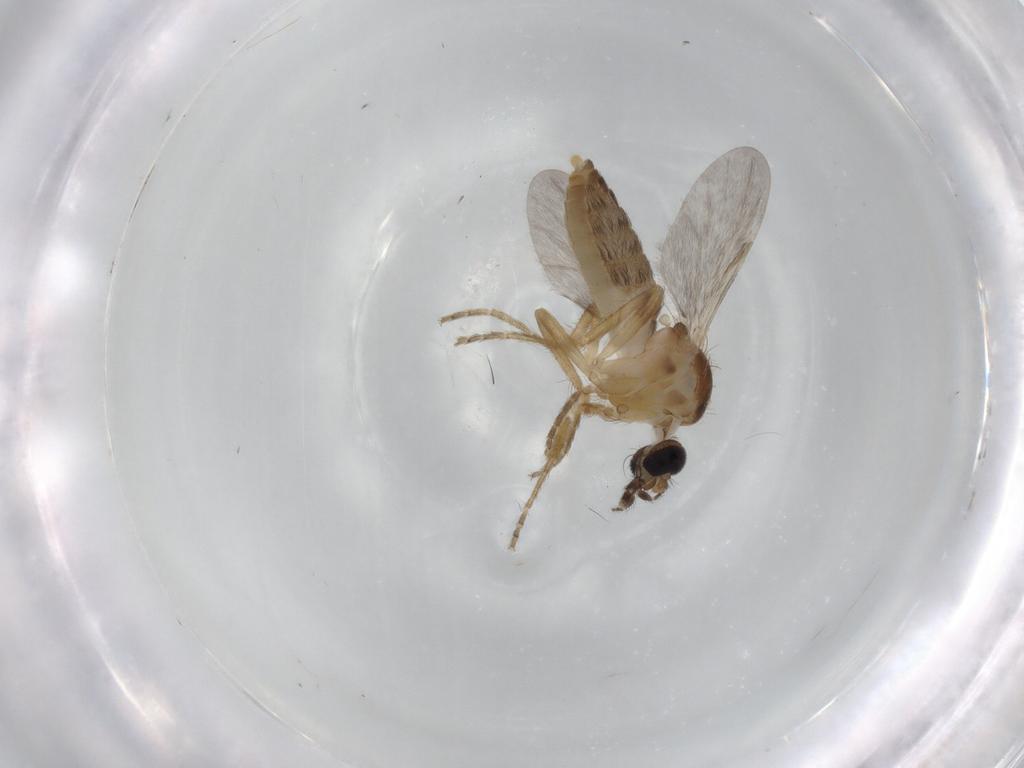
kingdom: Animalia
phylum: Arthropoda
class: Insecta
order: Diptera
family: Ceratopogonidae
